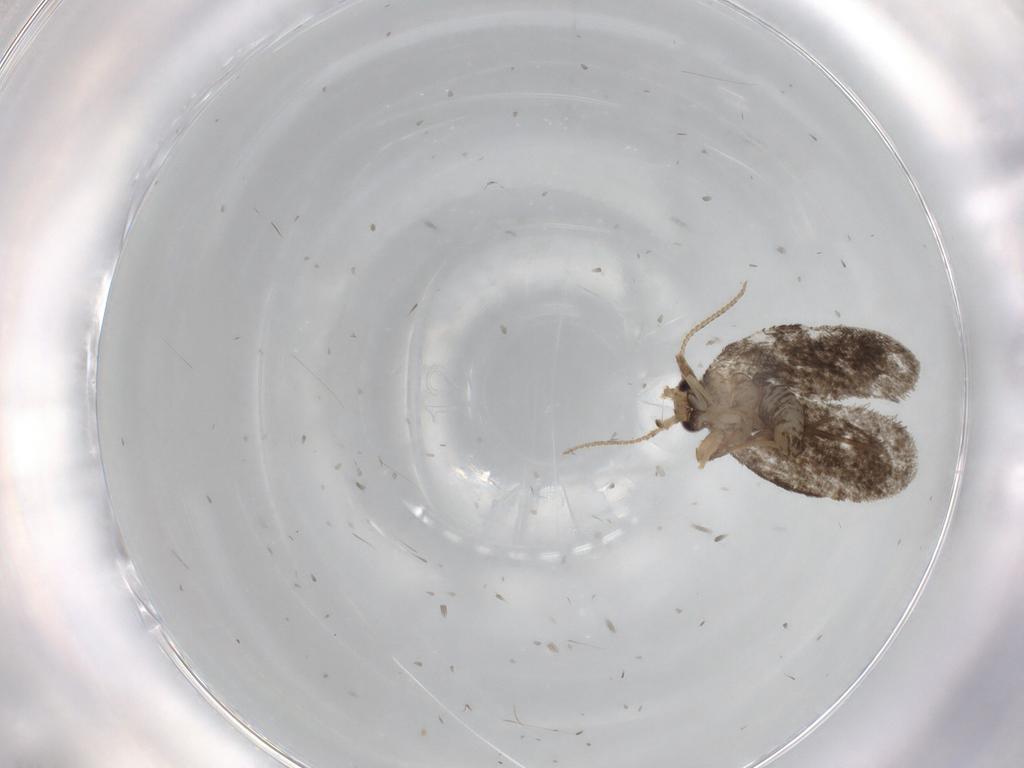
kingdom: Animalia
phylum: Arthropoda
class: Insecta
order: Lepidoptera
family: Psychidae
